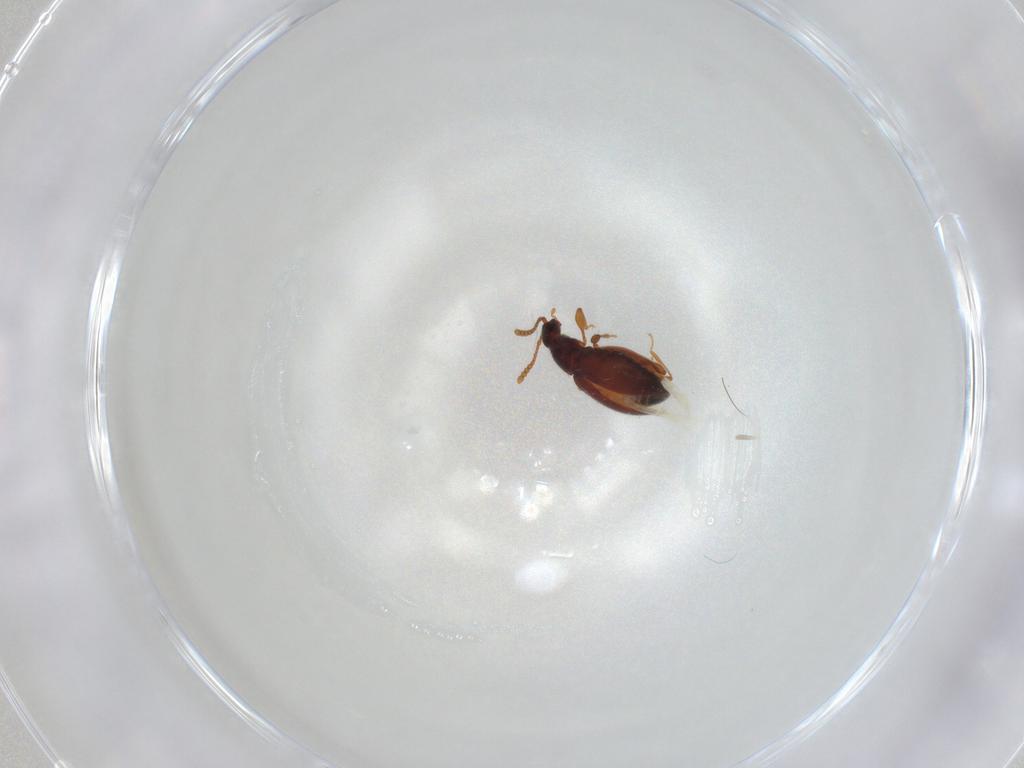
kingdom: Animalia
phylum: Arthropoda
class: Insecta
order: Coleoptera
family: Staphylinidae
